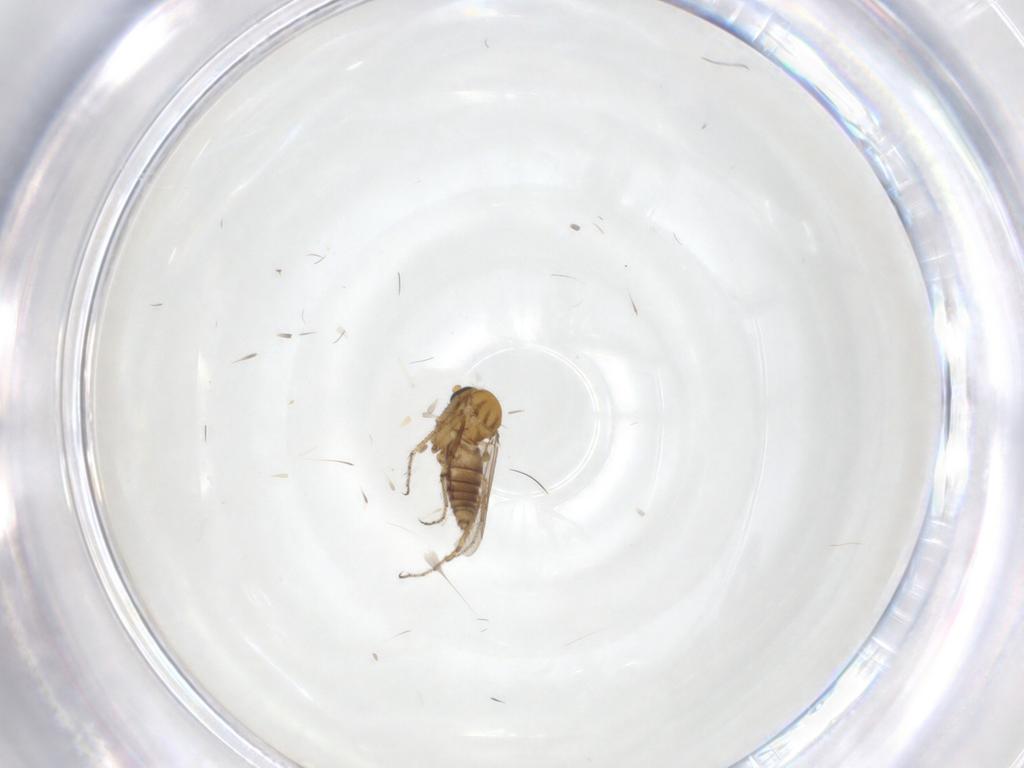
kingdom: Animalia
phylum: Arthropoda
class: Insecta
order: Diptera
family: Ceratopogonidae
